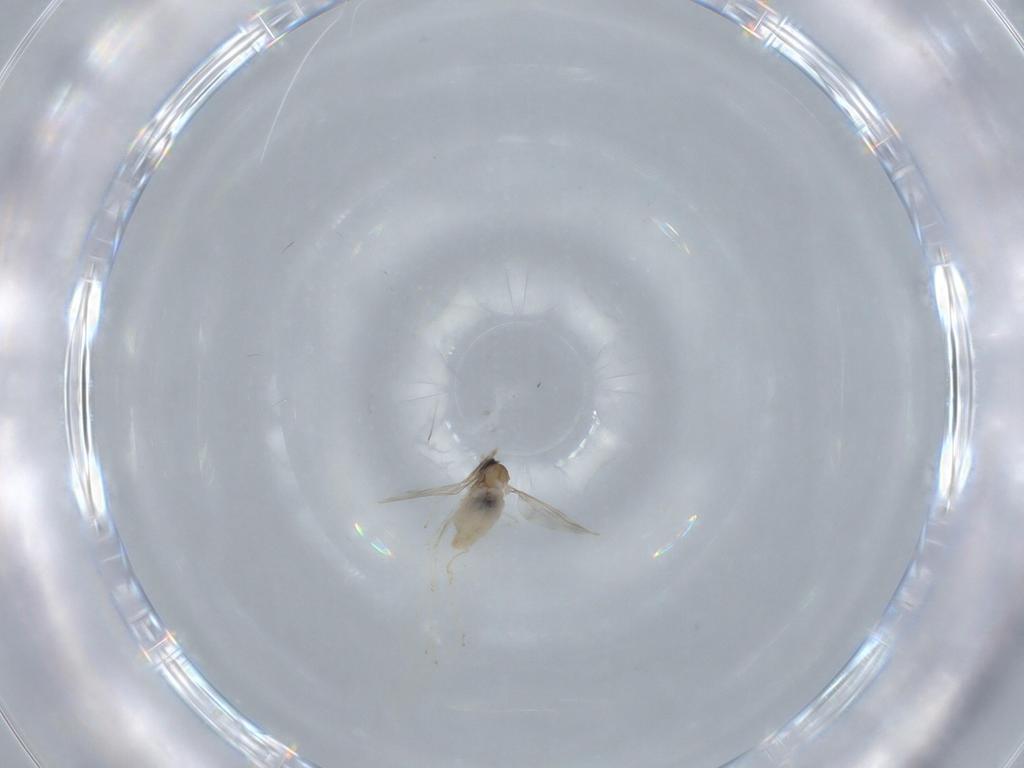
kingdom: Animalia
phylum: Arthropoda
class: Insecta
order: Diptera
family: Cecidomyiidae
